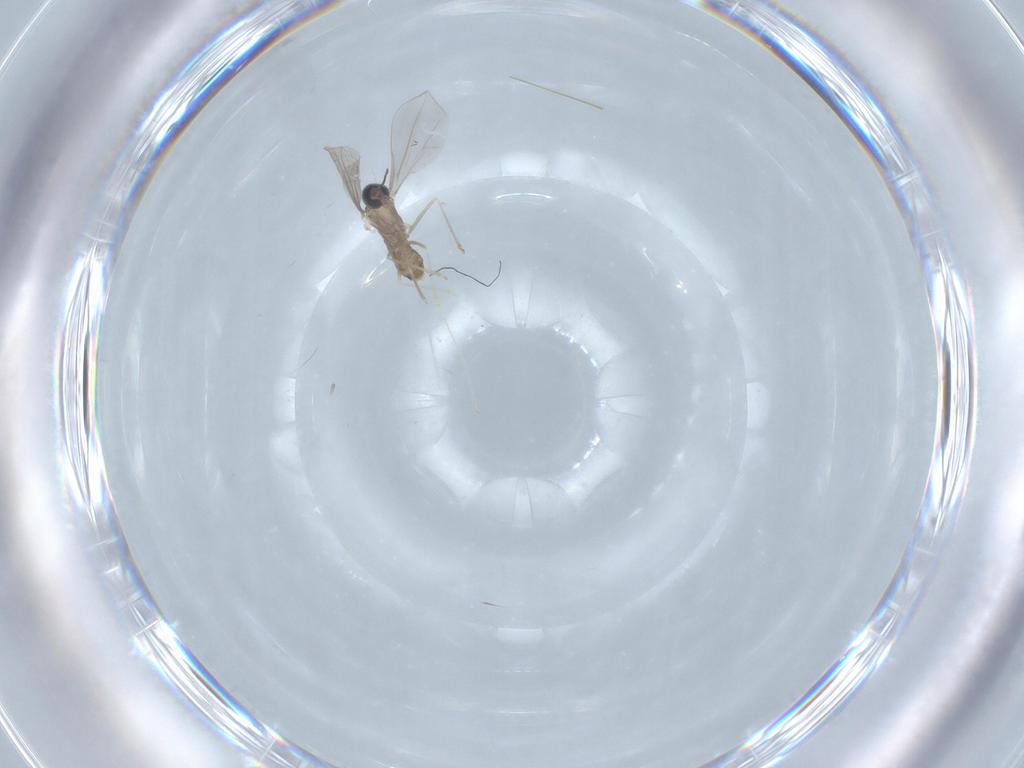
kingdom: Animalia
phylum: Arthropoda
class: Insecta
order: Diptera
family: Cecidomyiidae
